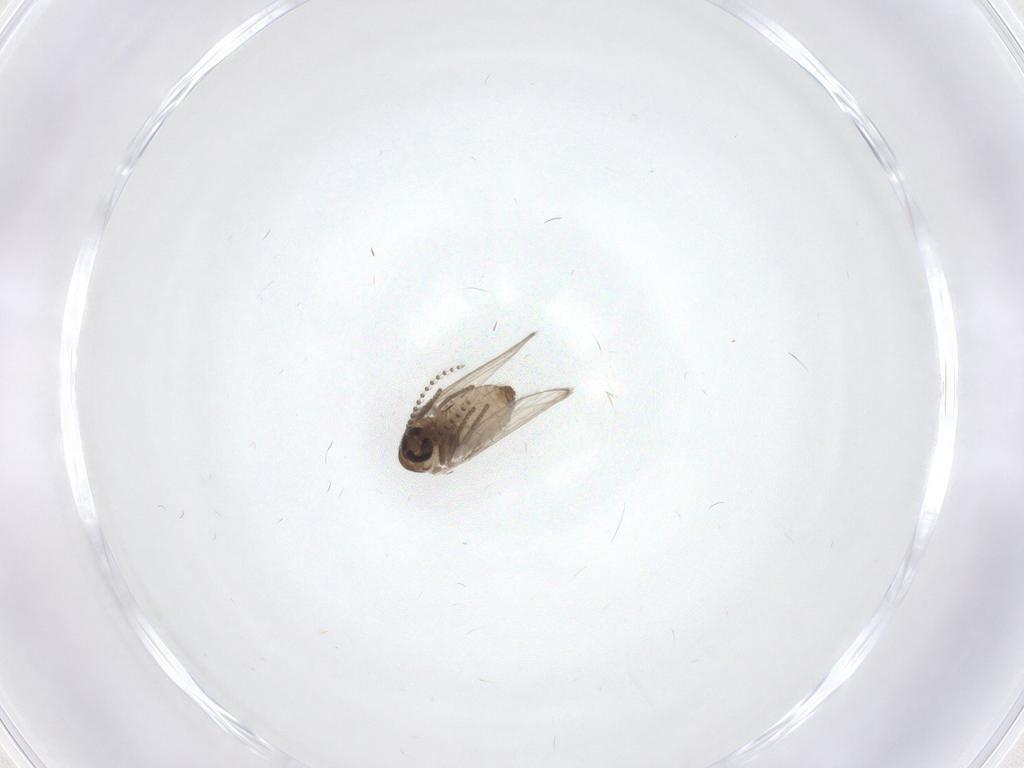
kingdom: Animalia
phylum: Arthropoda
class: Insecta
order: Diptera
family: Psychodidae
